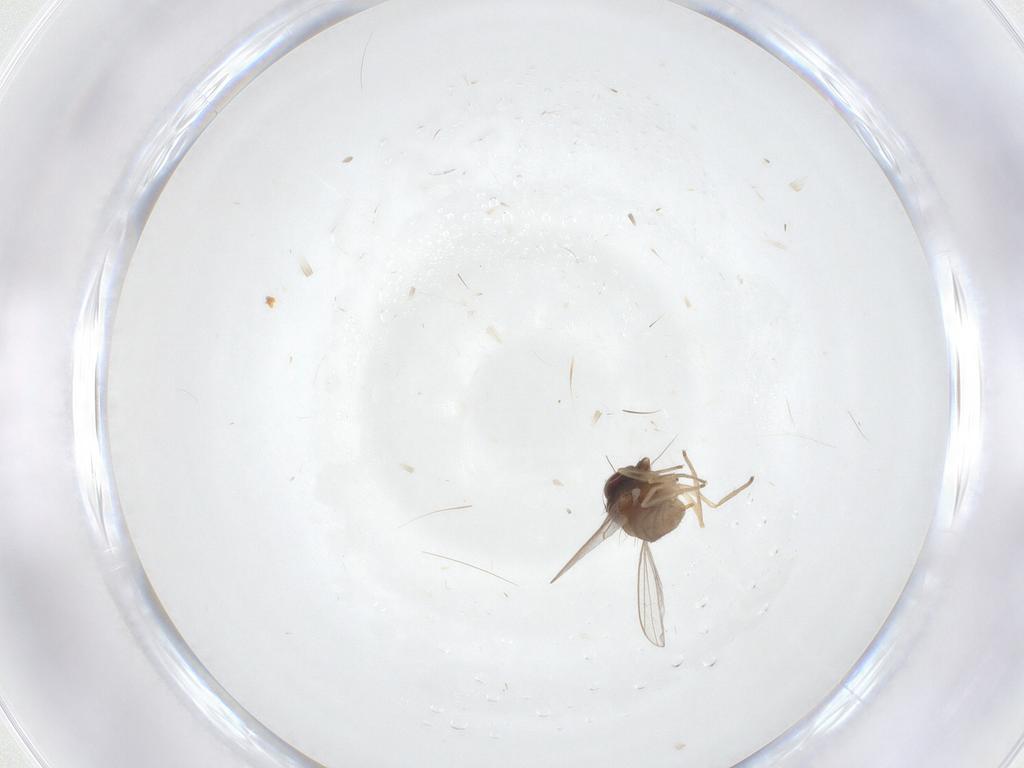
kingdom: Animalia
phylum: Arthropoda
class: Insecta
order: Diptera
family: Dolichopodidae
